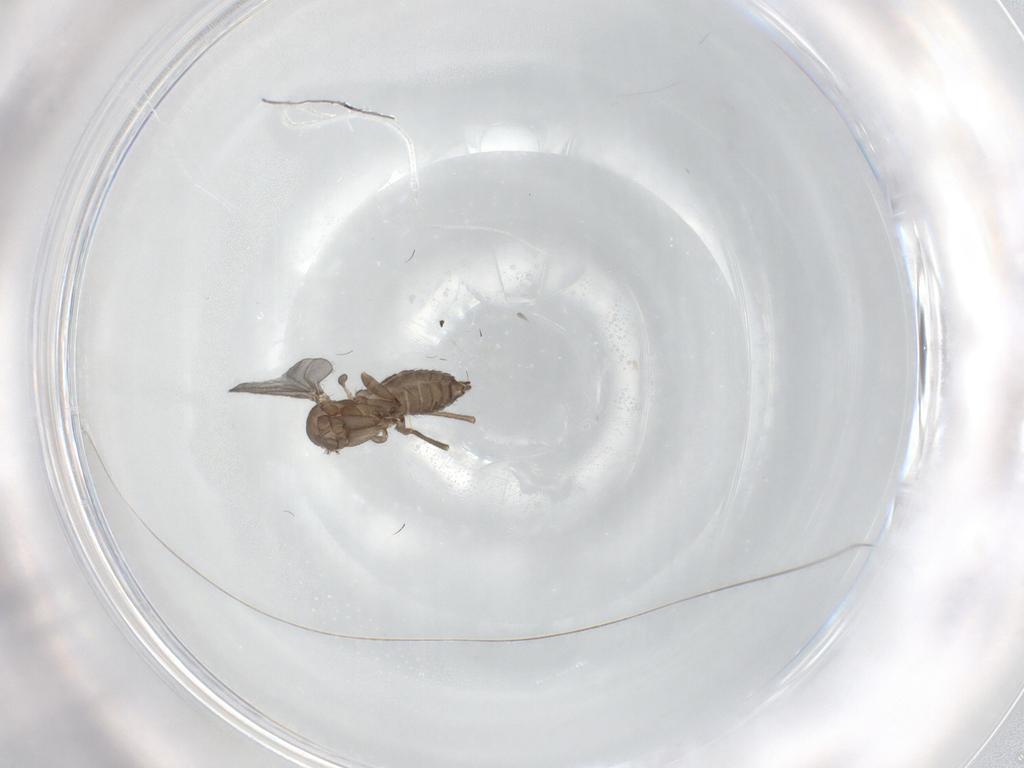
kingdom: Animalia
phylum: Arthropoda
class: Insecta
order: Diptera
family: Sciaridae
